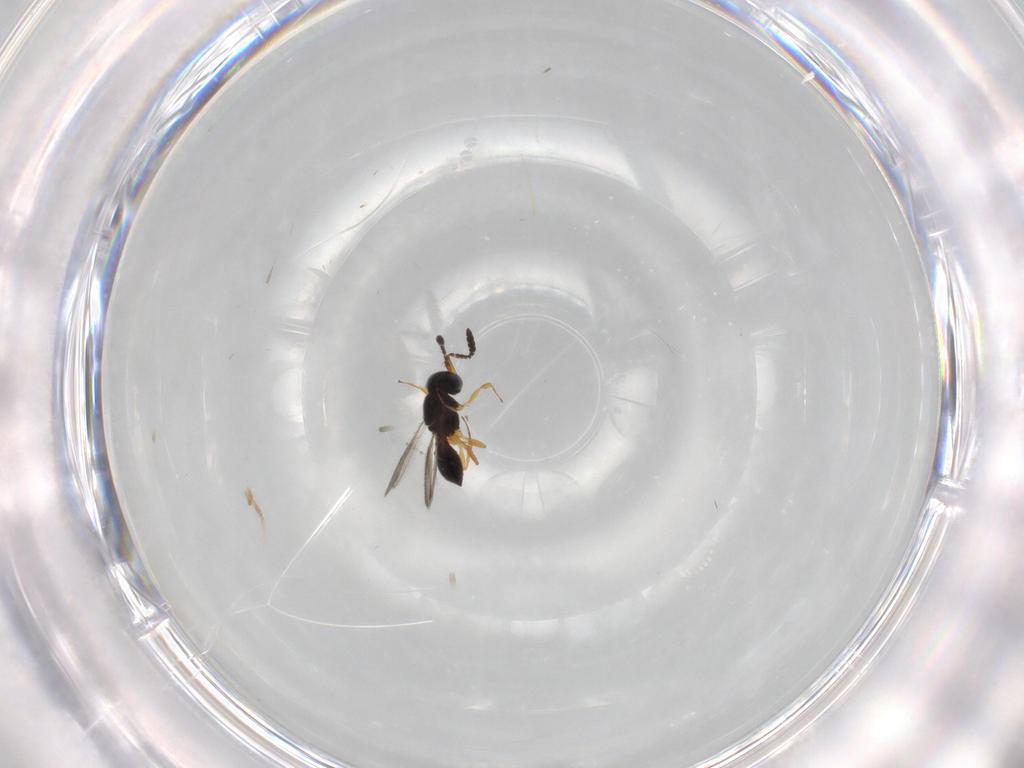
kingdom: Animalia
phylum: Arthropoda
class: Insecta
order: Hymenoptera
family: Scelionidae
